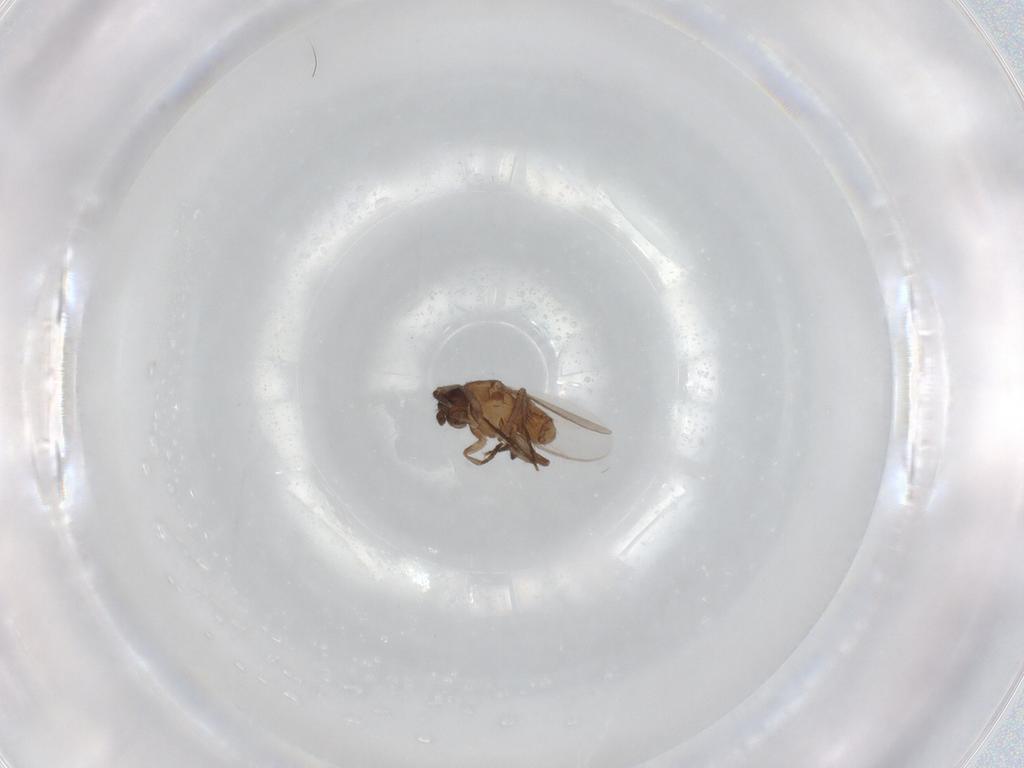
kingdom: Animalia
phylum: Arthropoda
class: Insecta
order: Diptera
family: Sphaeroceridae
